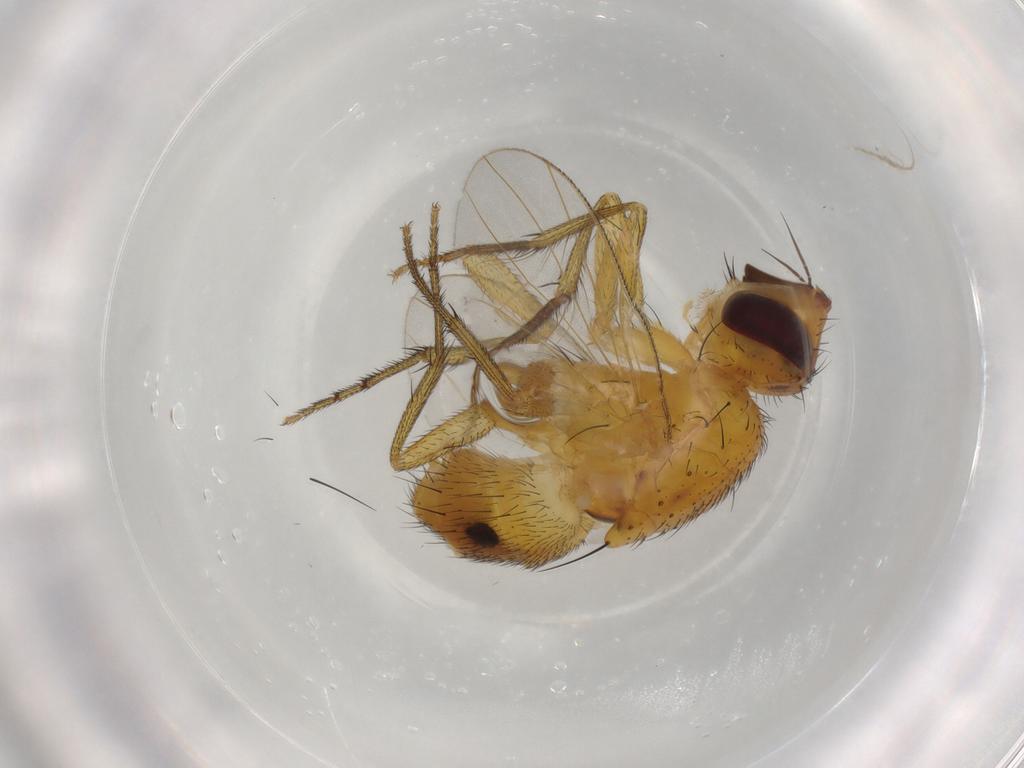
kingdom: Animalia
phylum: Arthropoda
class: Insecta
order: Diptera
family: Muscidae
